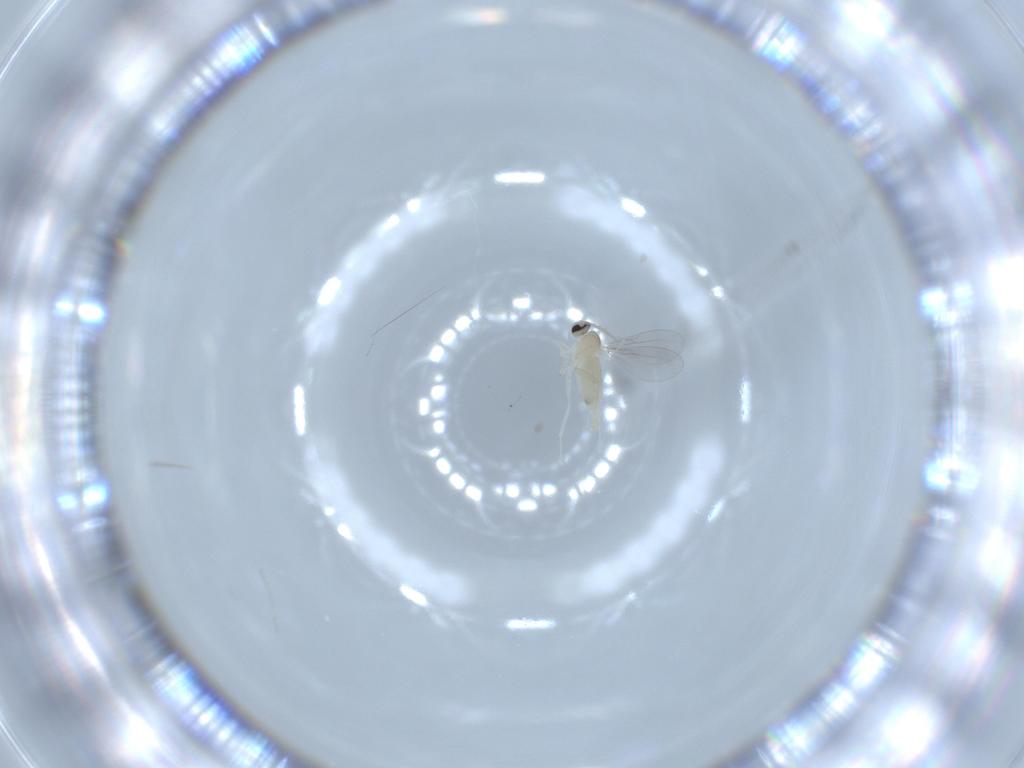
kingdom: Animalia
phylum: Arthropoda
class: Insecta
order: Diptera
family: Cecidomyiidae
